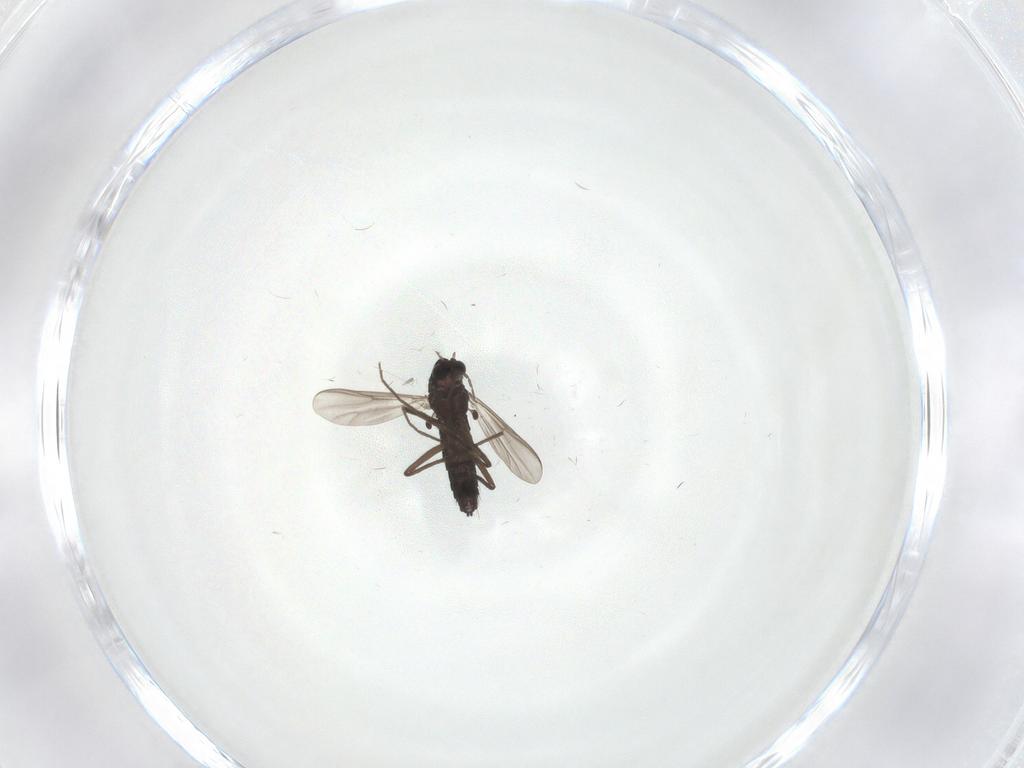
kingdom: Animalia
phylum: Arthropoda
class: Insecta
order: Diptera
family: Chironomidae
